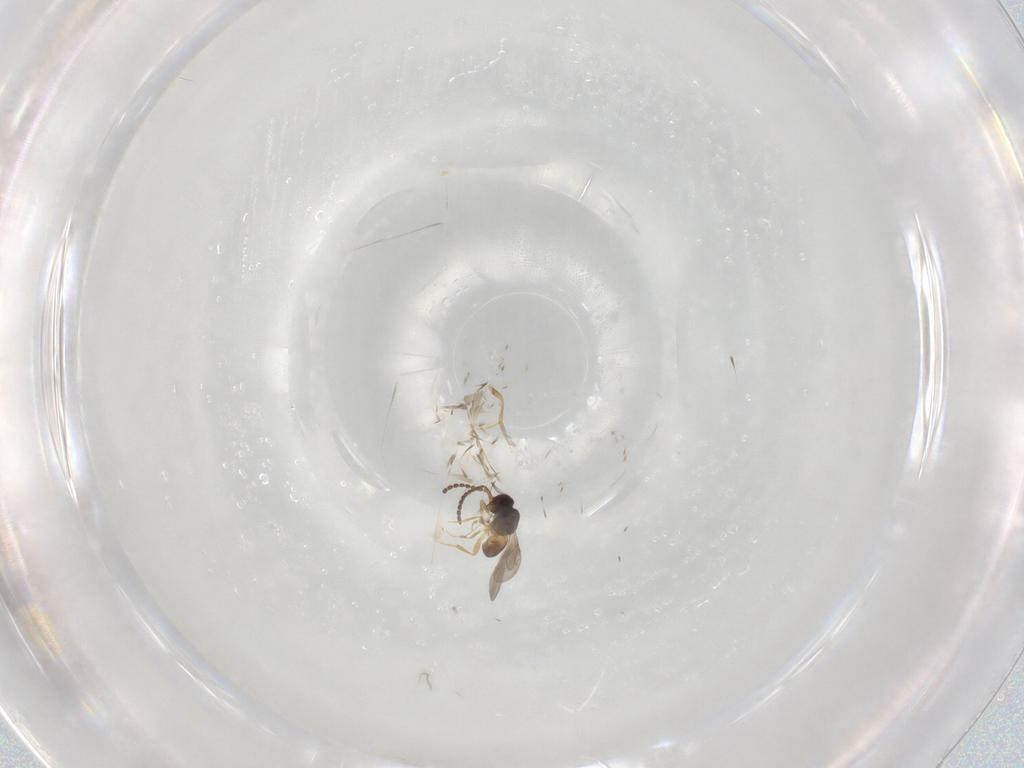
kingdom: Animalia
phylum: Arthropoda
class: Insecta
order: Hymenoptera
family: Ceraphronidae
